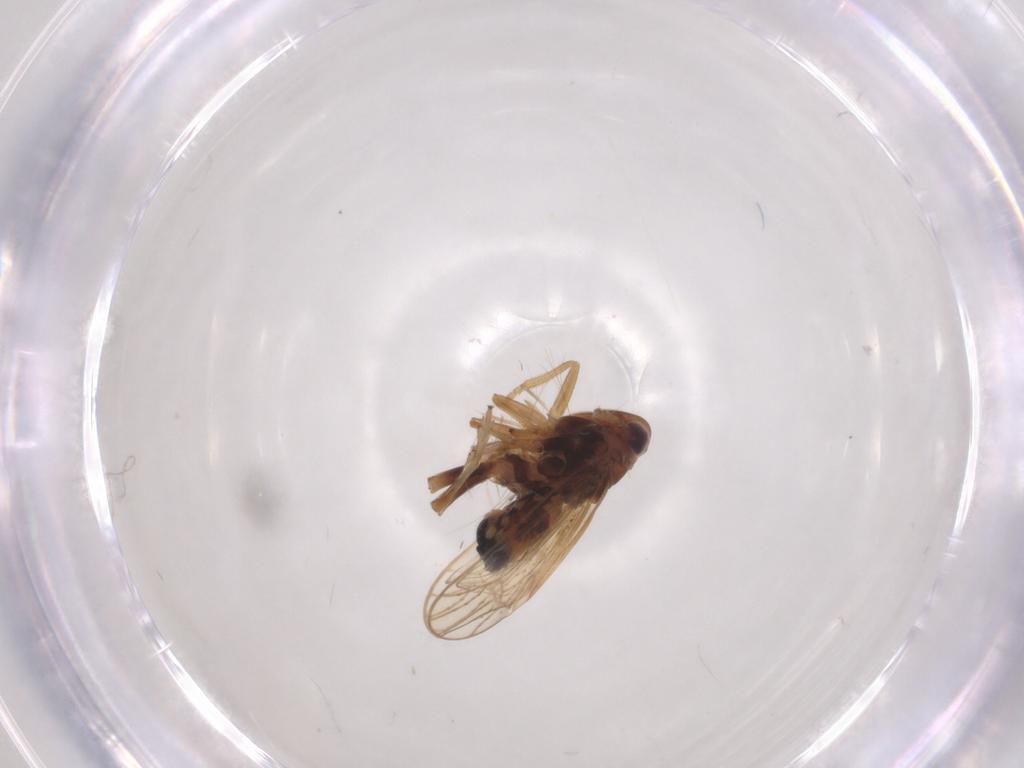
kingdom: Animalia
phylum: Arthropoda
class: Insecta
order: Hemiptera
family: Delphacidae
